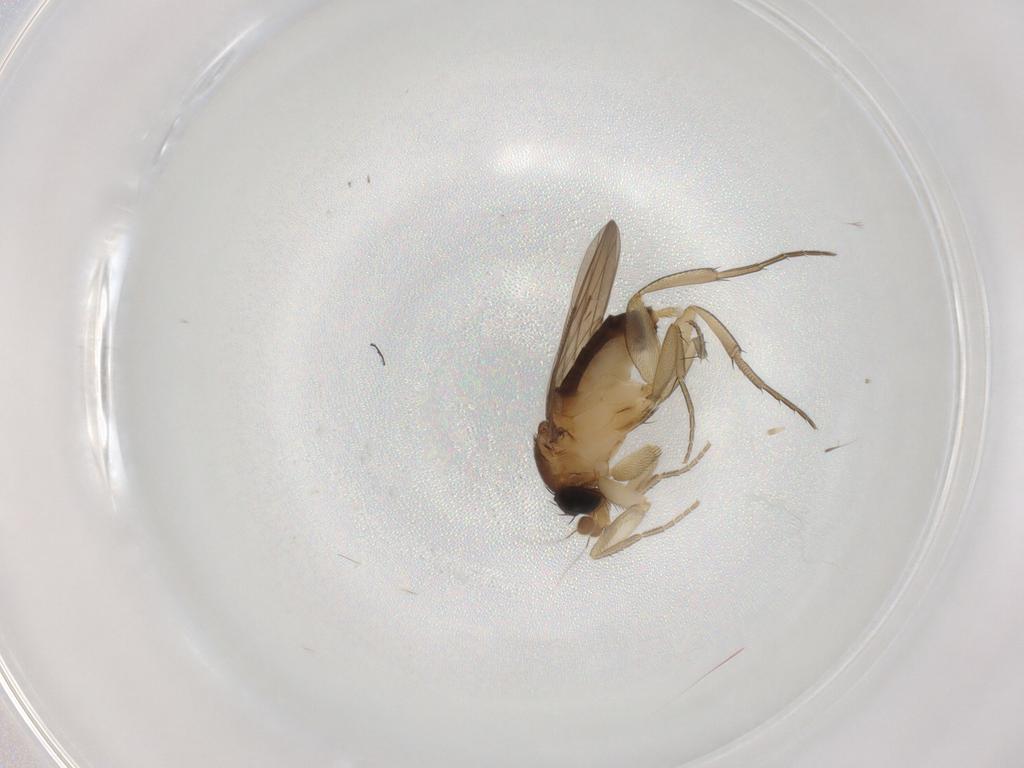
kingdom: Animalia
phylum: Arthropoda
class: Insecta
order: Diptera
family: Phoridae
